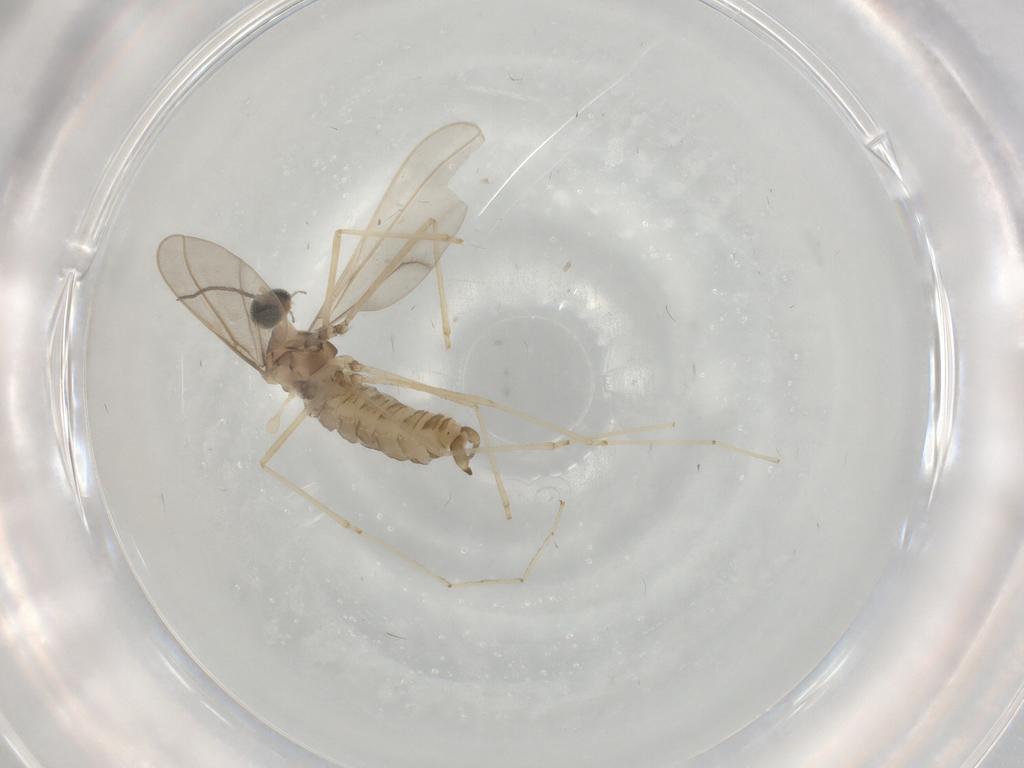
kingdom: Animalia
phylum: Arthropoda
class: Insecta
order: Diptera
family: Cecidomyiidae
